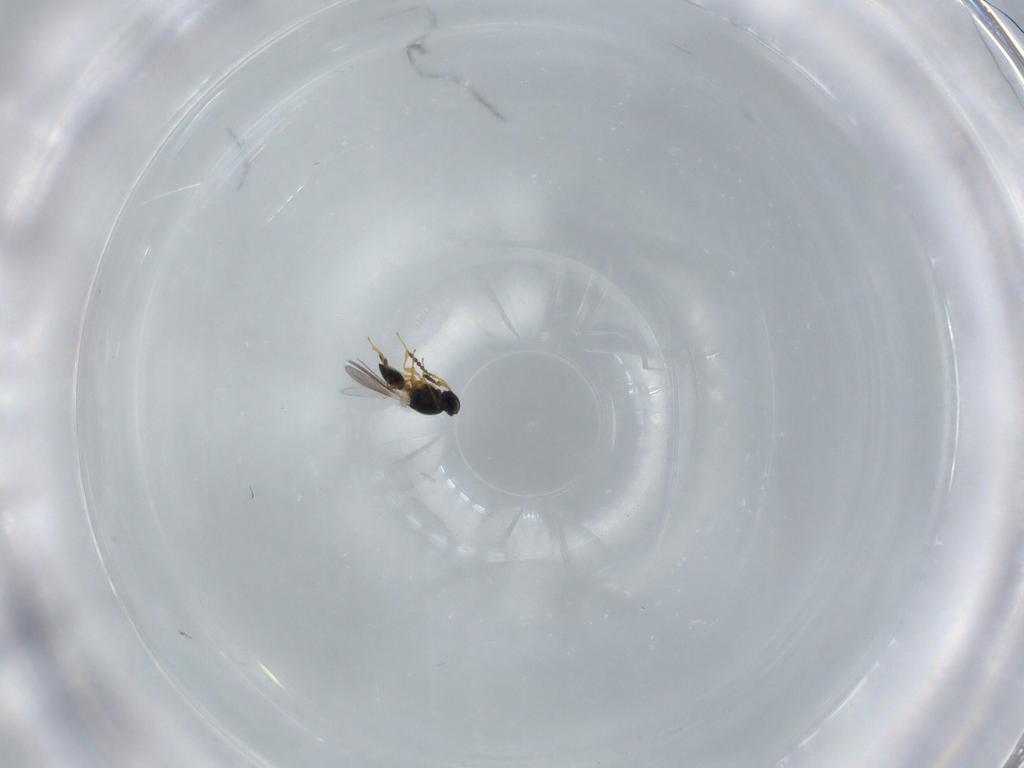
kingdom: Animalia
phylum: Arthropoda
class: Insecta
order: Hymenoptera
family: Platygastridae
